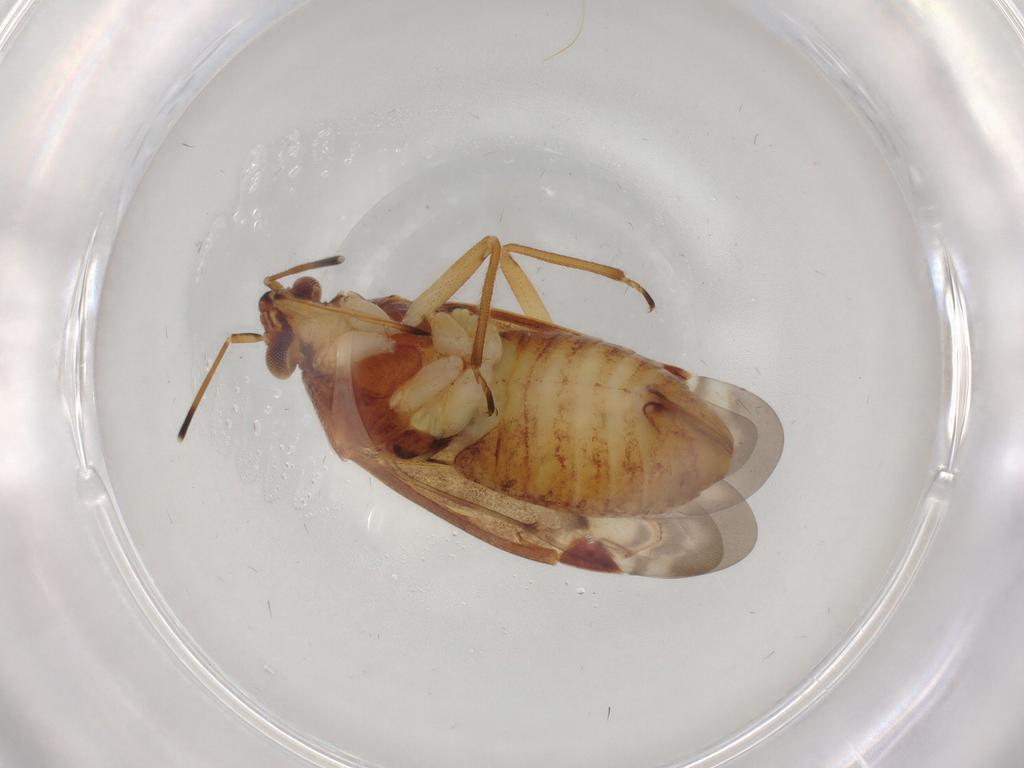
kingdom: Animalia
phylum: Arthropoda
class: Insecta
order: Hemiptera
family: Miridae
